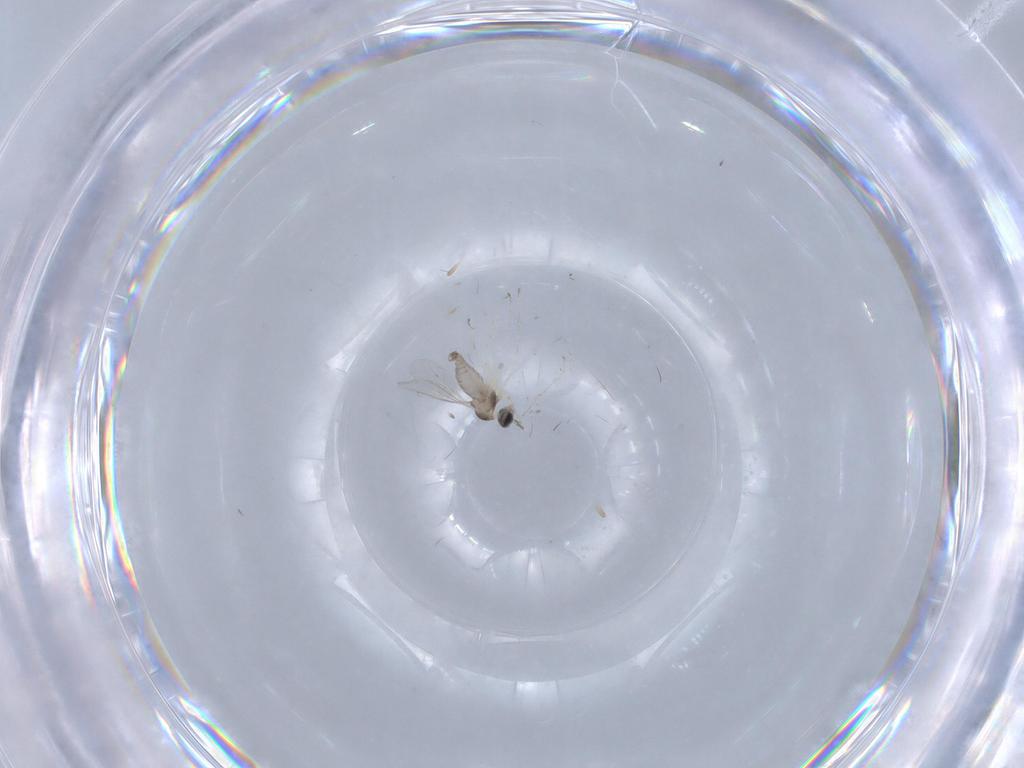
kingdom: Animalia
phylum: Arthropoda
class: Insecta
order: Diptera
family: Cecidomyiidae
